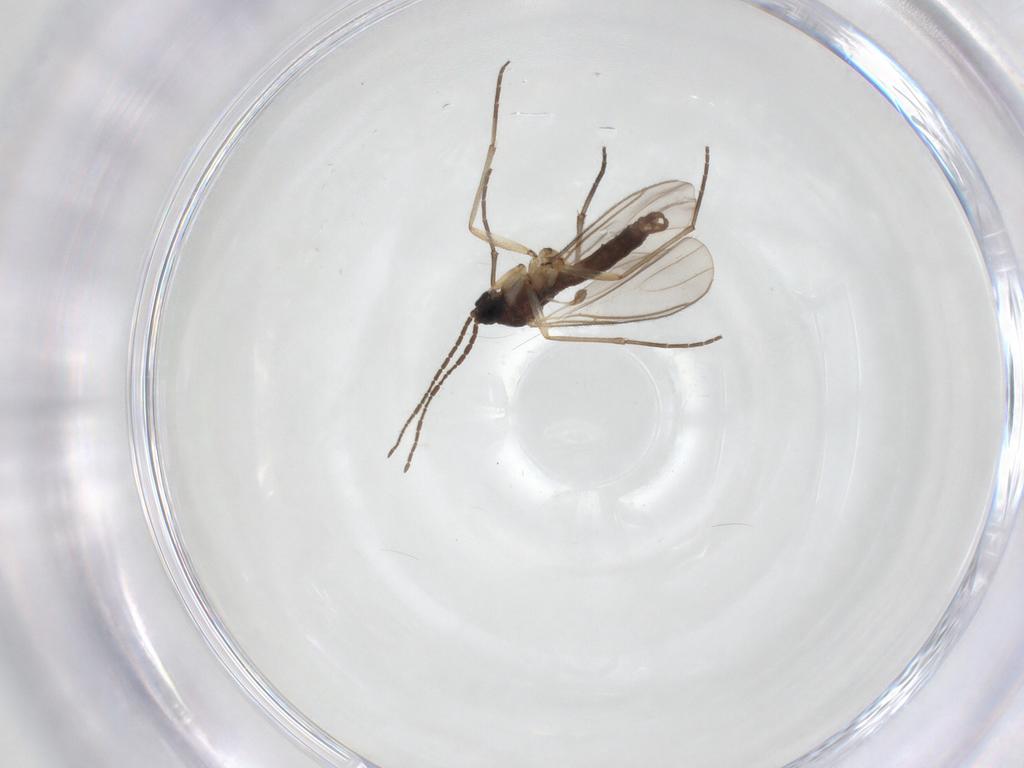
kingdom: Animalia
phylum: Arthropoda
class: Insecta
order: Diptera
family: Sciaridae
